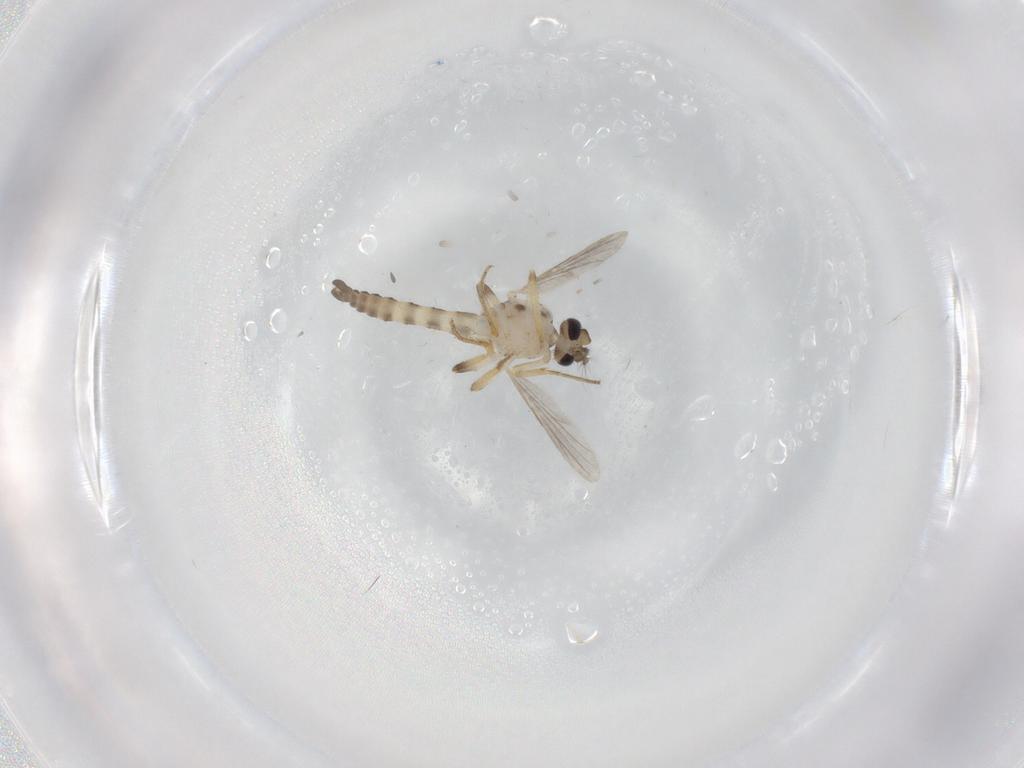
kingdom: Animalia
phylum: Arthropoda
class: Insecta
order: Diptera
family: Ceratopogonidae
